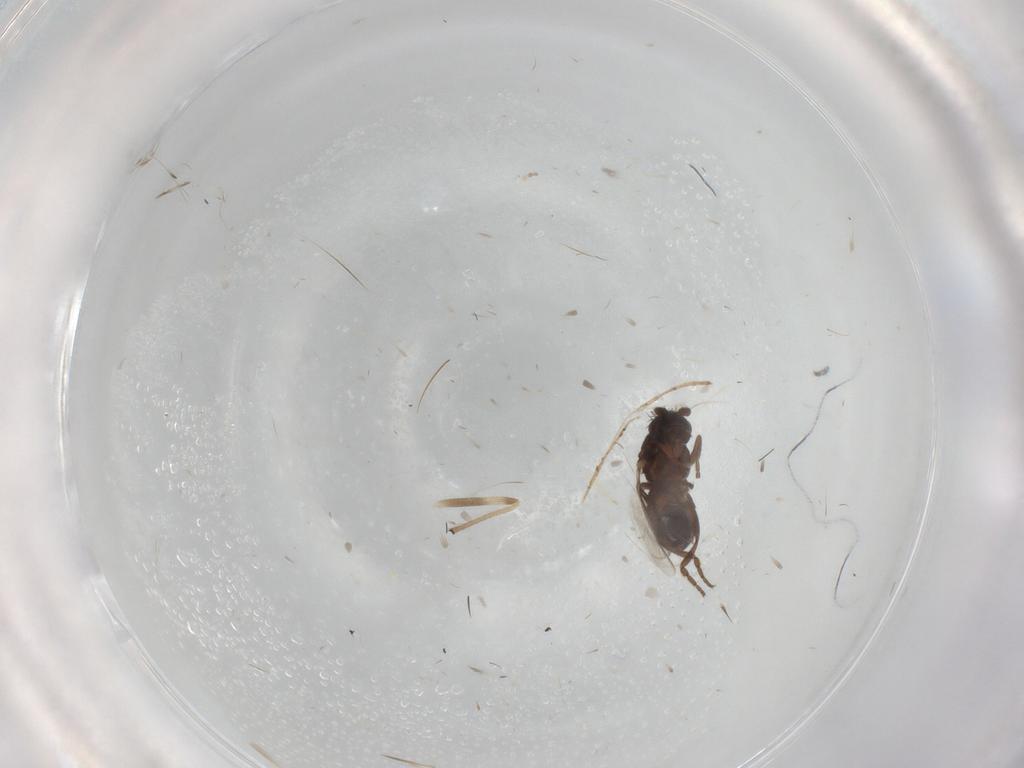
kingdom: Animalia
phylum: Arthropoda
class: Insecta
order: Diptera
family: Sphaeroceridae
